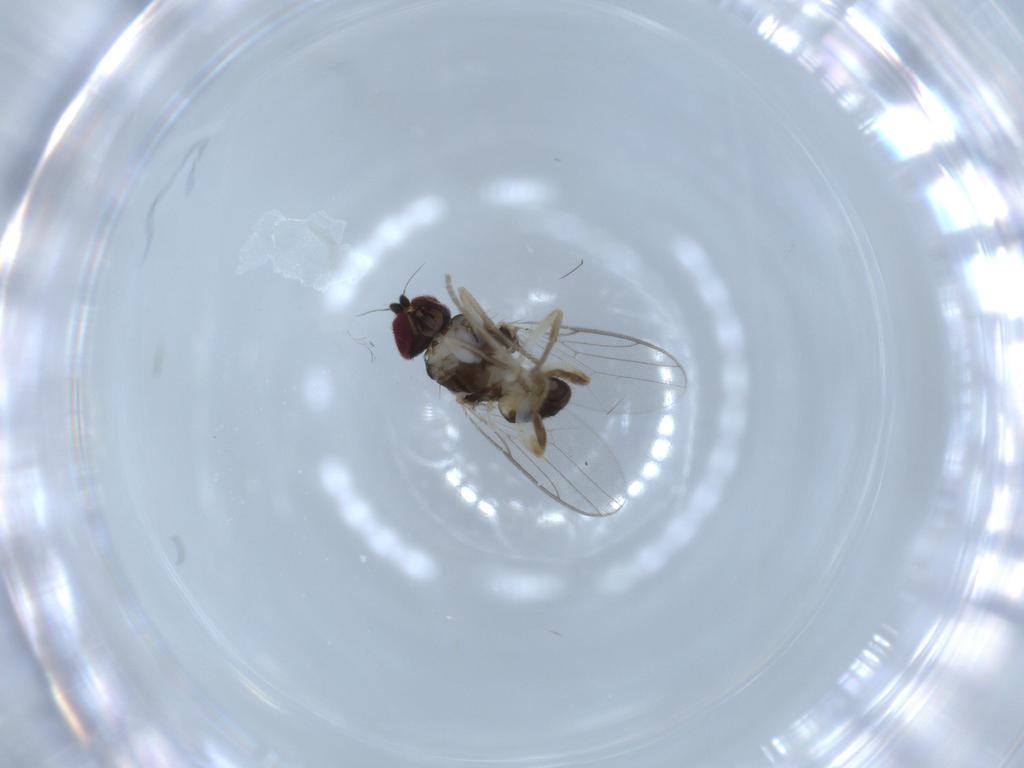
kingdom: Animalia
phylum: Arthropoda
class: Insecta
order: Diptera
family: Chloropidae
